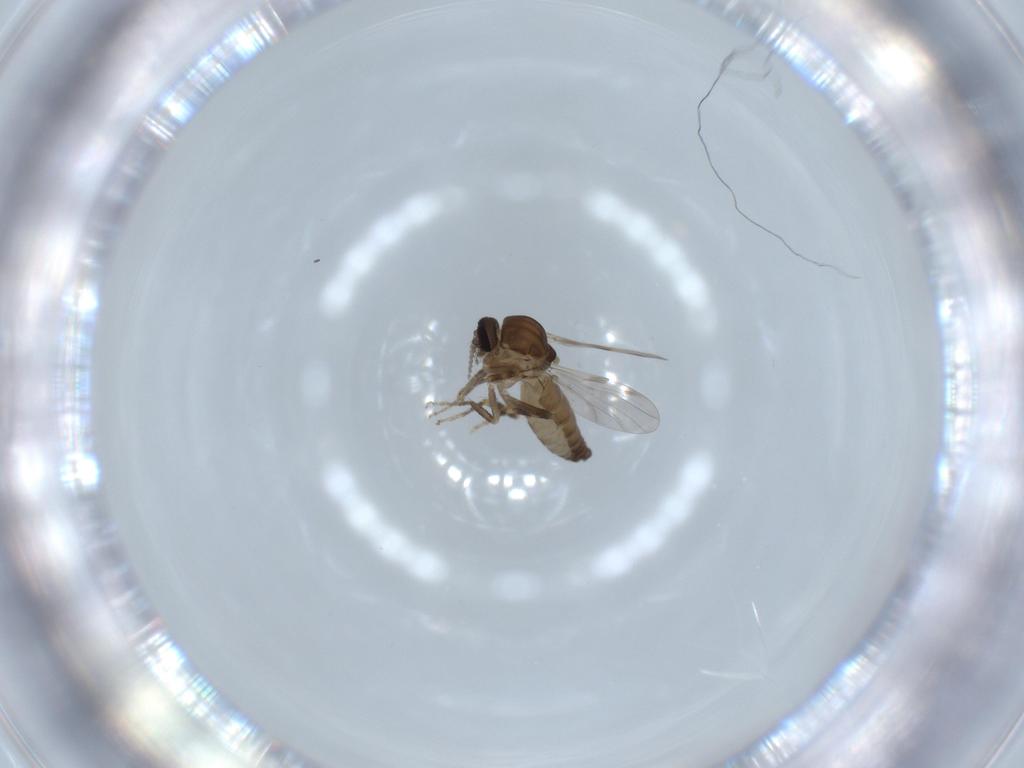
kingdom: Animalia
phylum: Arthropoda
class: Insecta
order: Diptera
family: Ceratopogonidae
